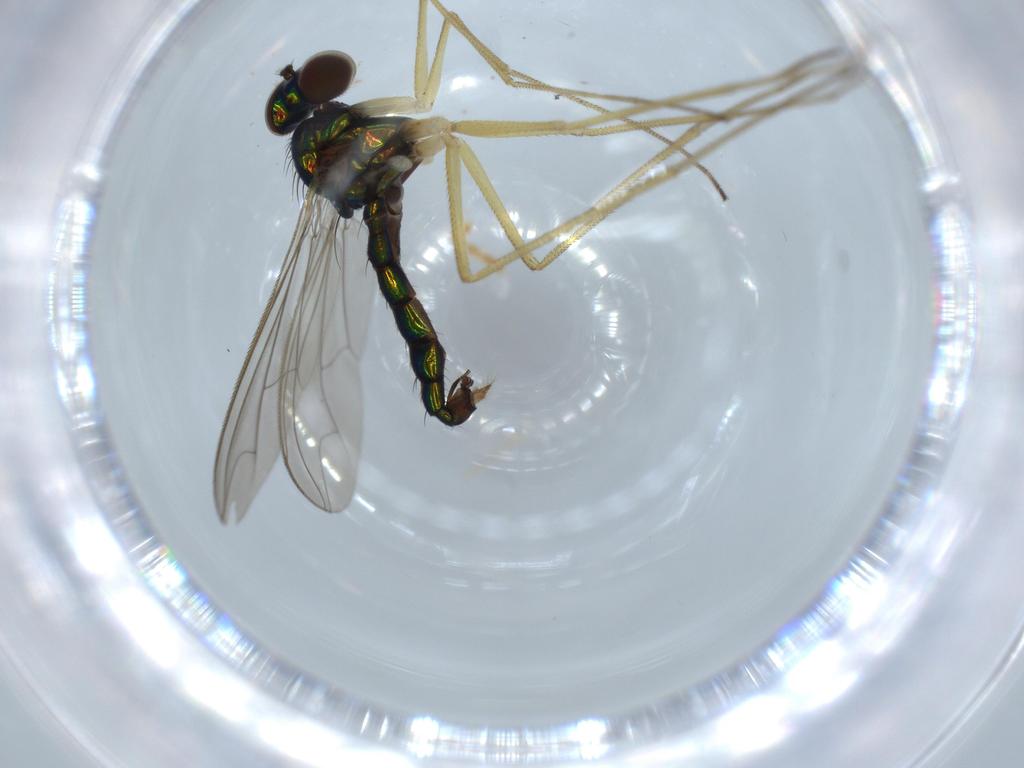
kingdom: Animalia
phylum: Arthropoda
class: Insecta
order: Diptera
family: Dolichopodidae
